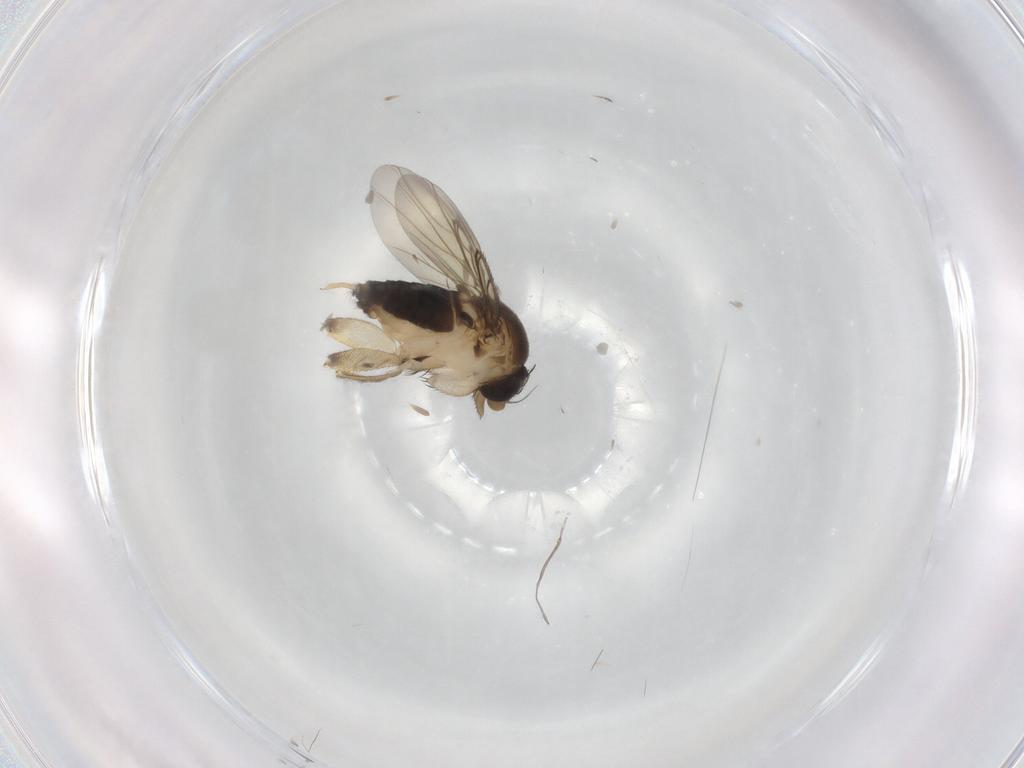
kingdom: Animalia
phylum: Arthropoda
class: Insecta
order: Diptera
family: Phoridae
